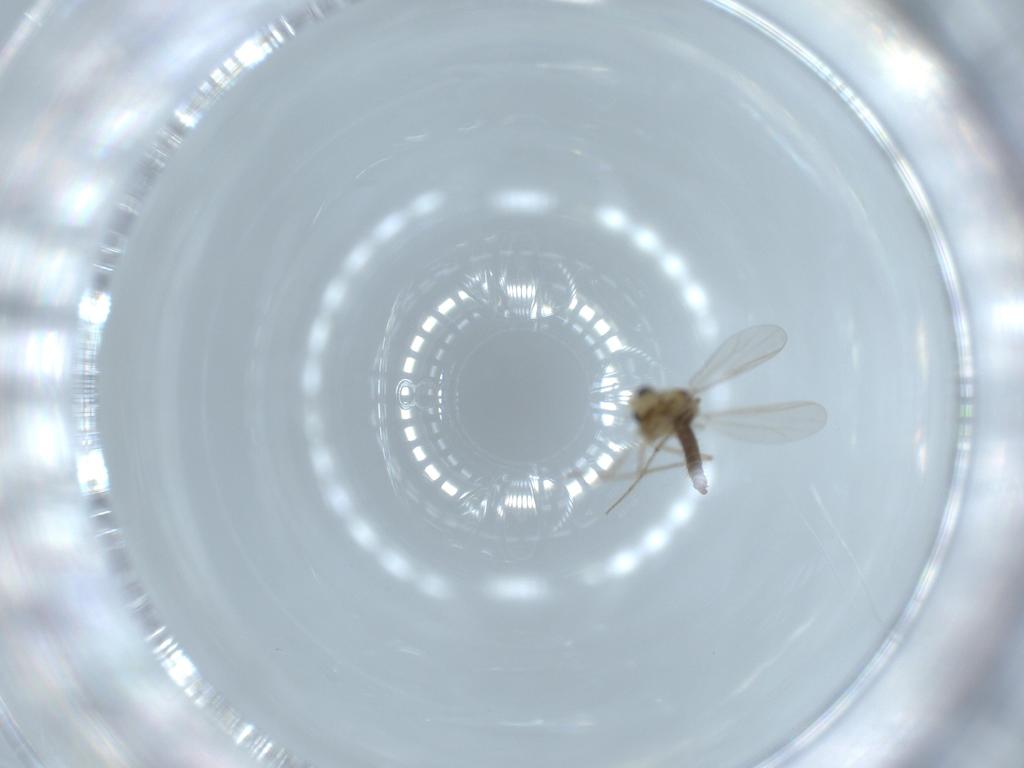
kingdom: Animalia
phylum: Arthropoda
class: Insecta
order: Diptera
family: Chironomidae
